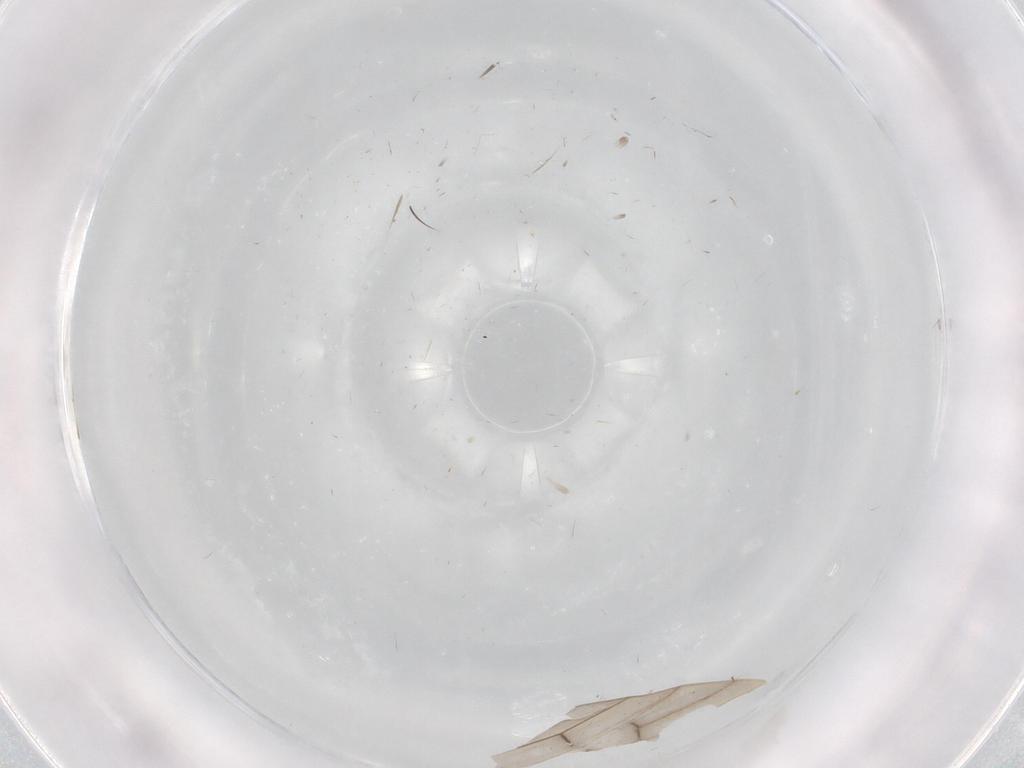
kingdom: Animalia
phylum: Arthropoda
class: Insecta
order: Diptera
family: Limoniidae
